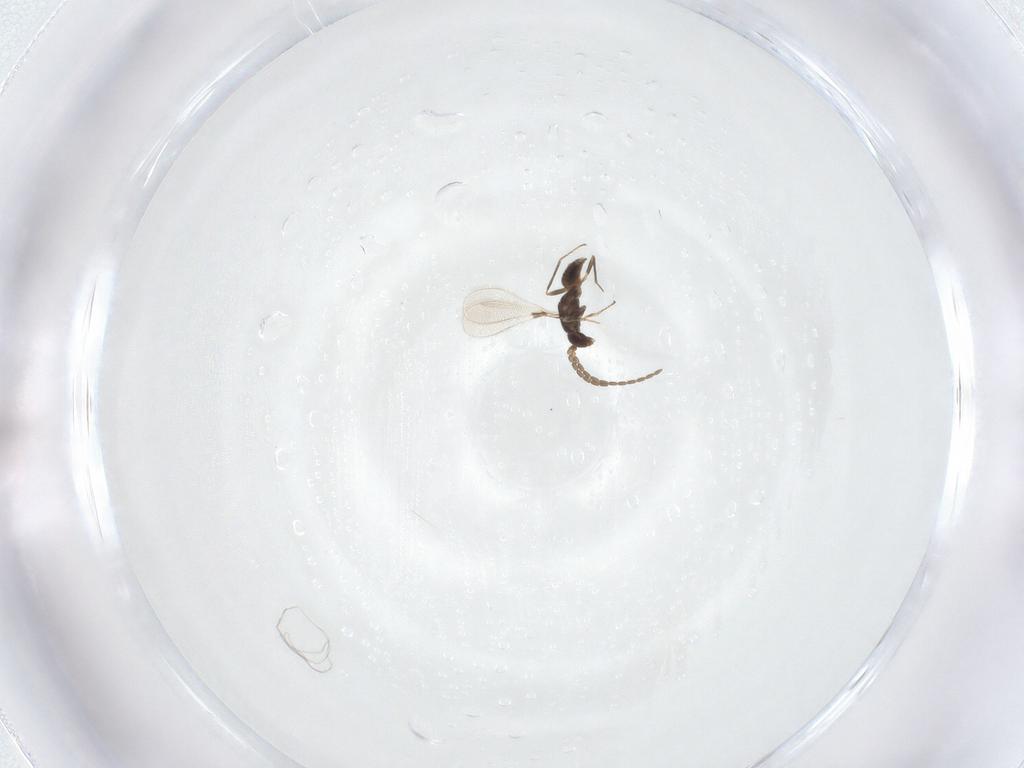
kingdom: Animalia
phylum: Arthropoda
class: Insecta
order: Hymenoptera
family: Mymaridae
